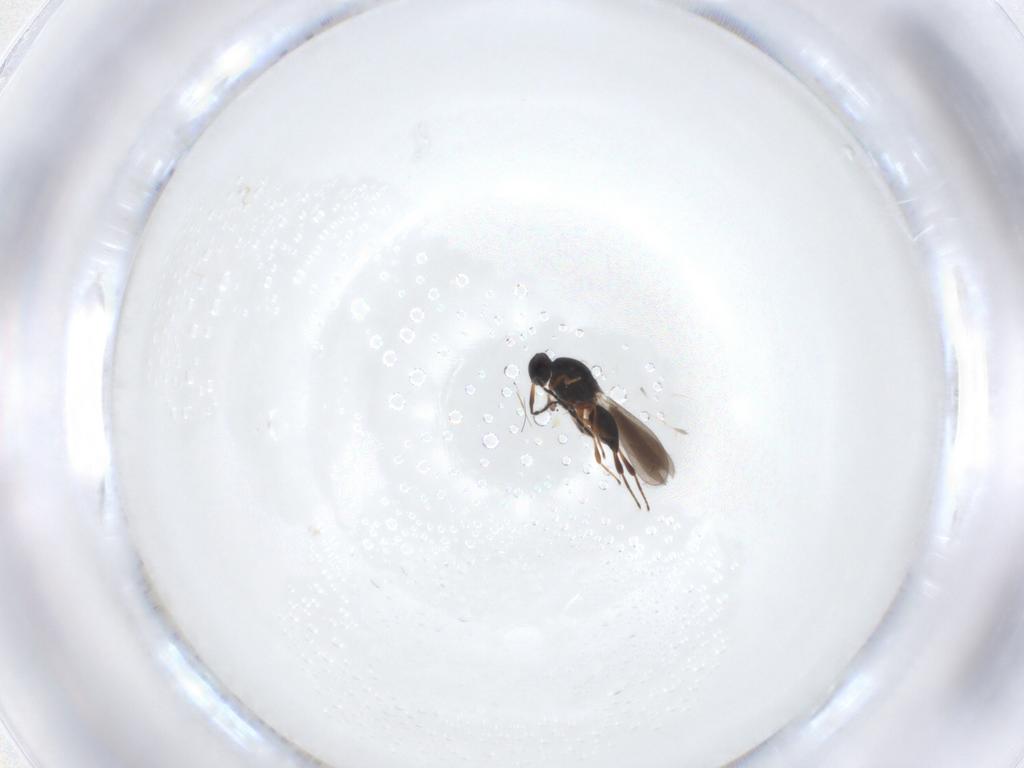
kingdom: Animalia
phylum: Arthropoda
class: Insecta
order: Hymenoptera
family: Platygastridae
